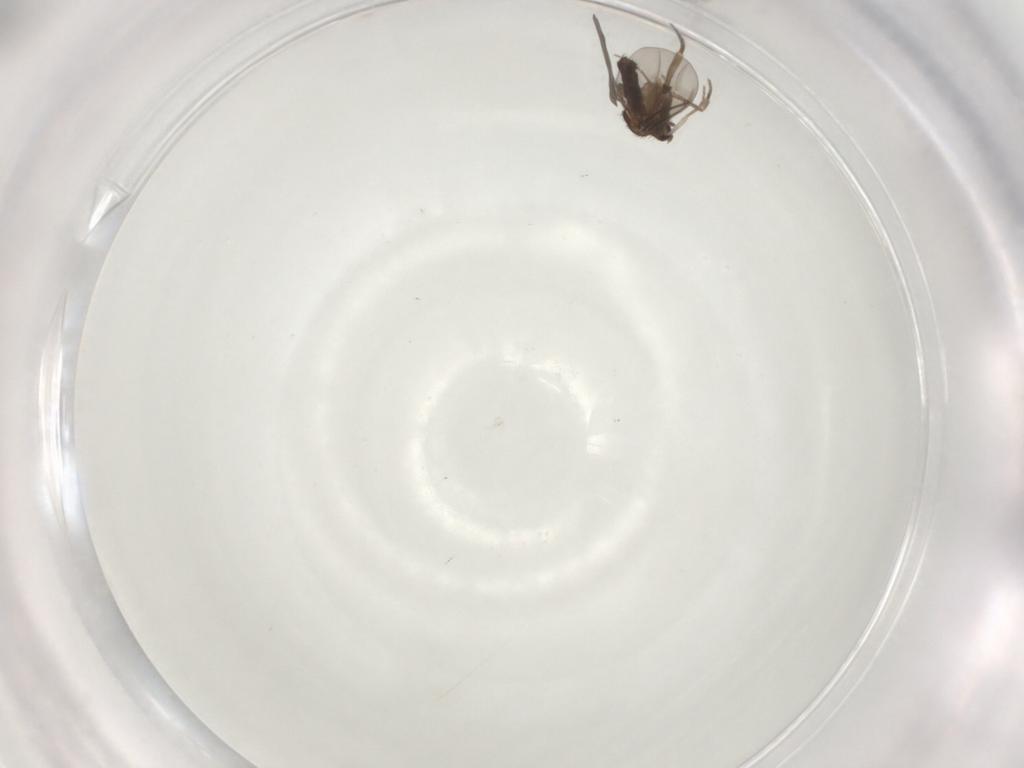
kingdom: Animalia
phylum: Arthropoda
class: Insecta
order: Diptera
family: Phoridae
